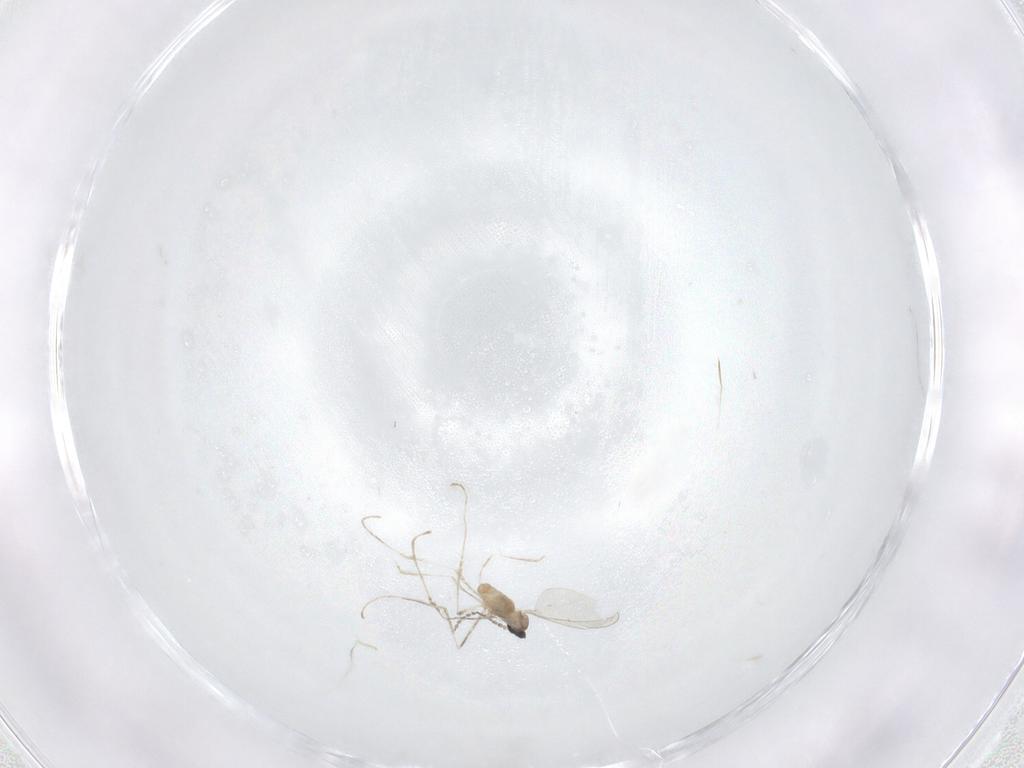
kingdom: Animalia
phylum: Arthropoda
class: Insecta
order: Diptera
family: Cecidomyiidae
